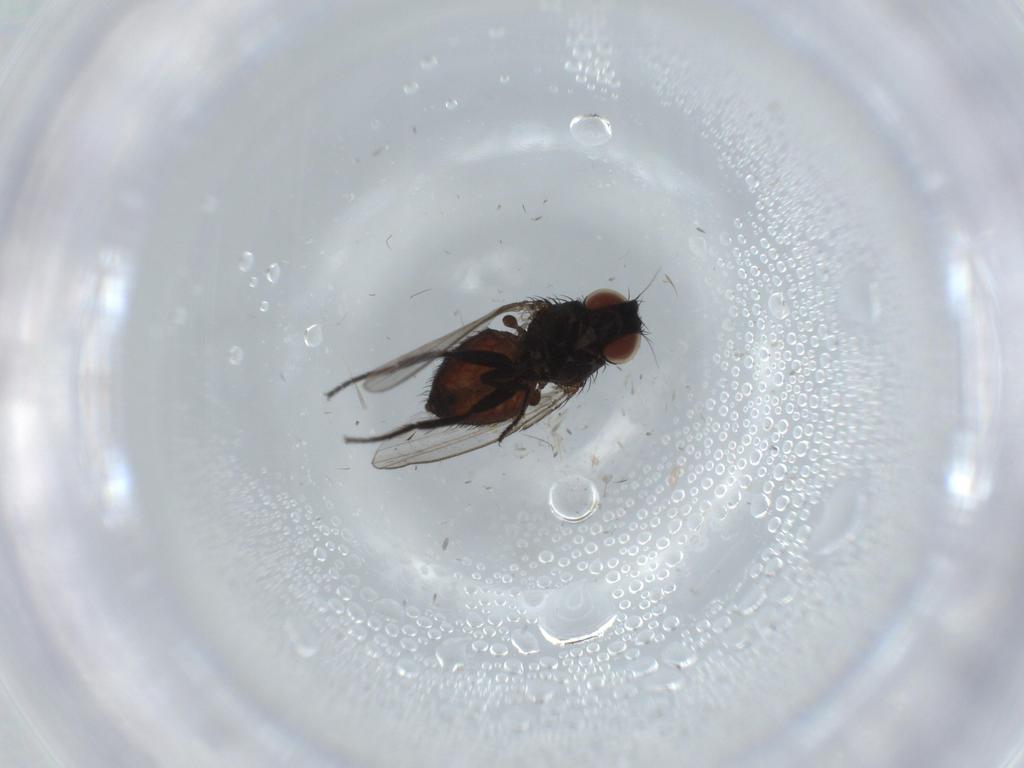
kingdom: Animalia
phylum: Arthropoda
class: Insecta
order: Diptera
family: Milichiidae
